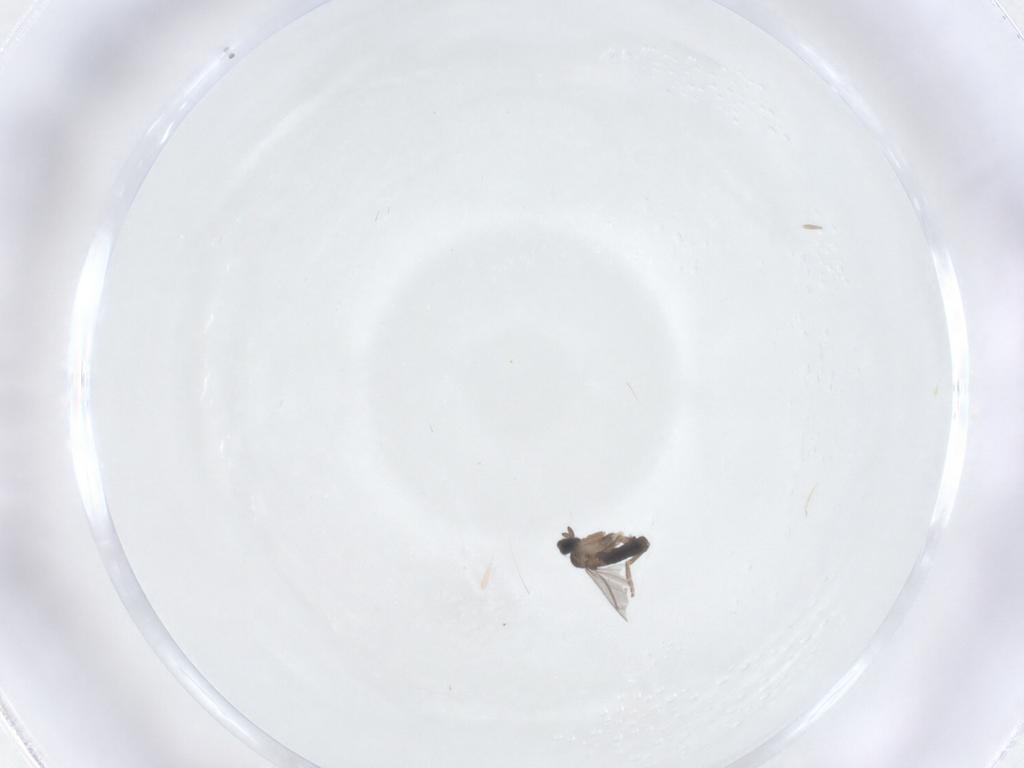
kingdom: Animalia
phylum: Arthropoda
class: Insecta
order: Diptera
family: Phoridae
